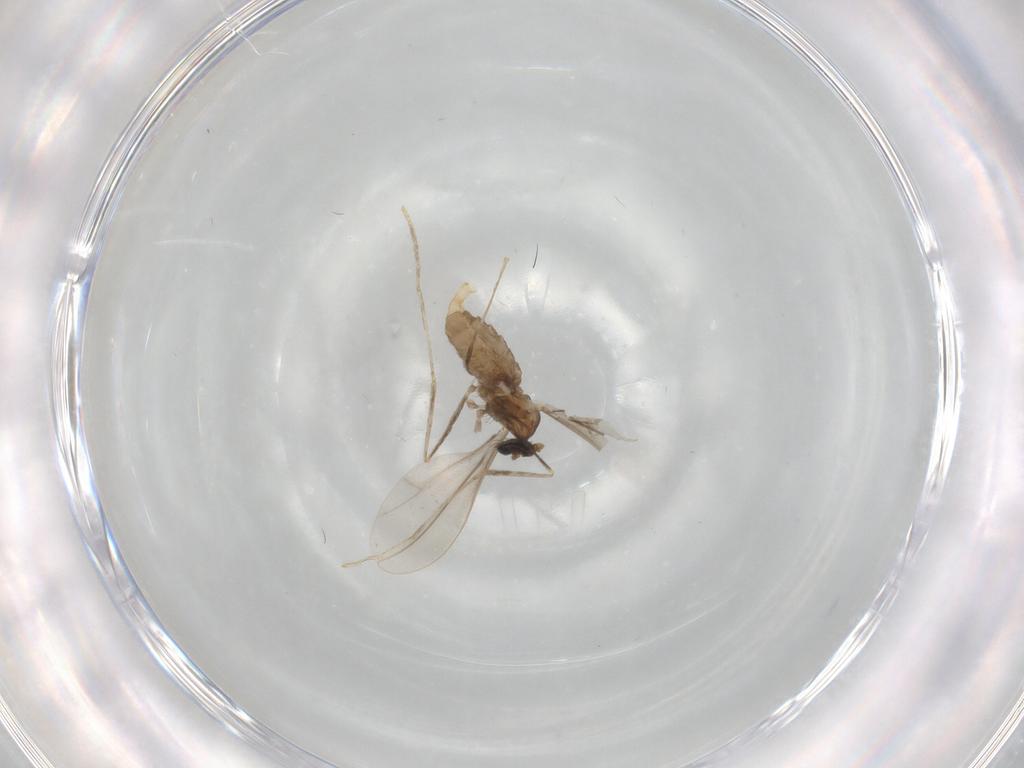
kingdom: Animalia
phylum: Arthropoda
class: Insecta
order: Diptera
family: Cecidomyiidae
